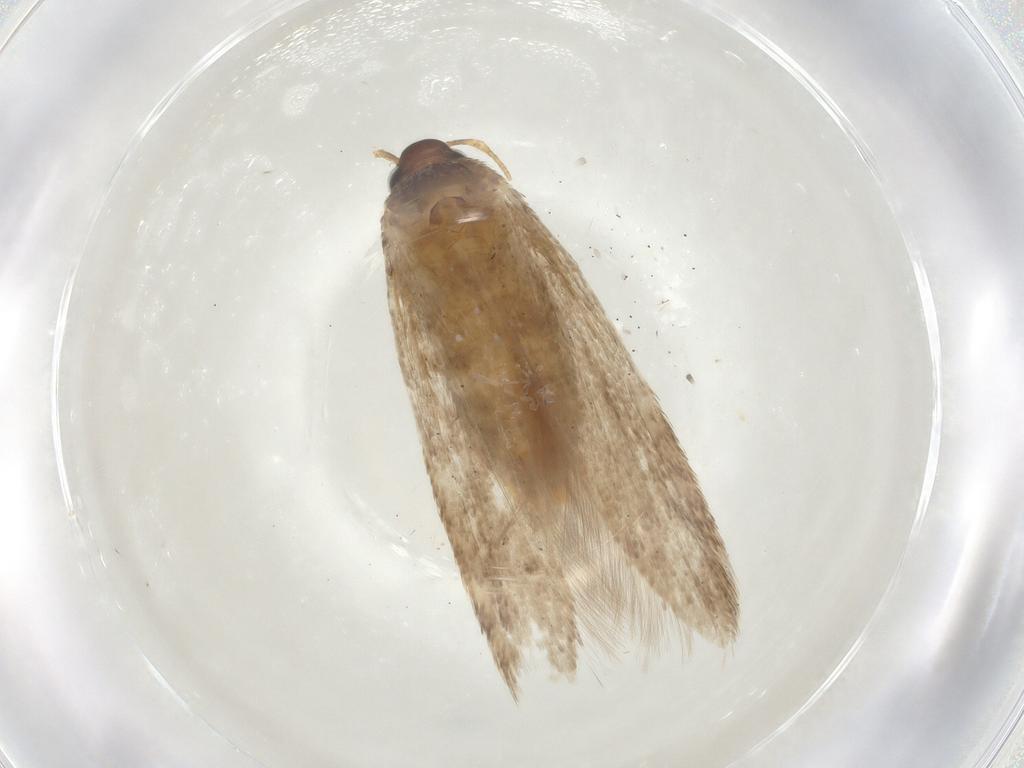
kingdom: Animalia
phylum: Arthropoda
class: Insecta
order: Lepidoptera
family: Coleophoridae
